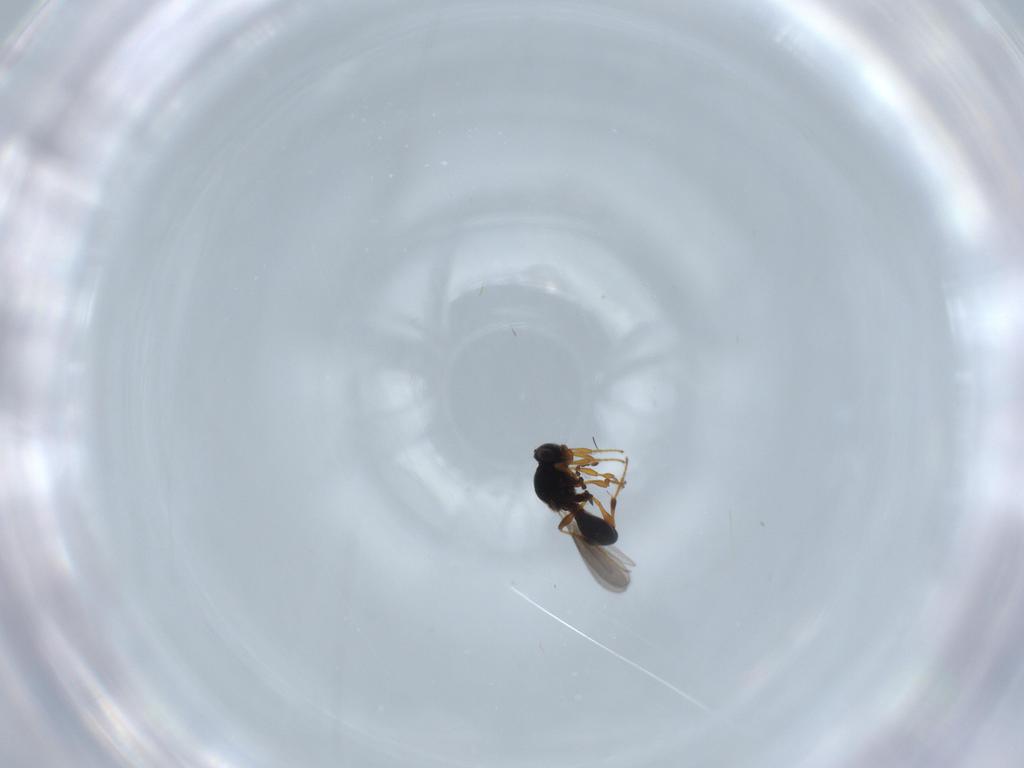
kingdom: Animalia
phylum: Arthropoda
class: Insecta
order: Hymenoptera
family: Platygastridae
